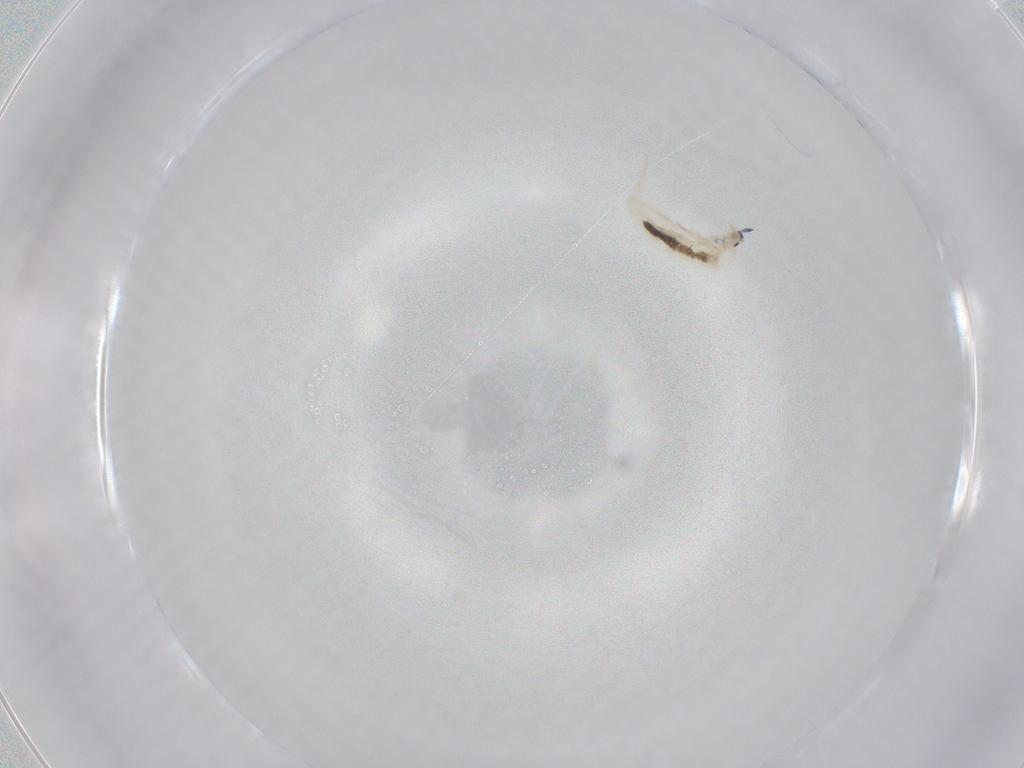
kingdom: Animalia
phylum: Arthropoda
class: Collembola
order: Entomobryomorpha
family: Entomobryidae
